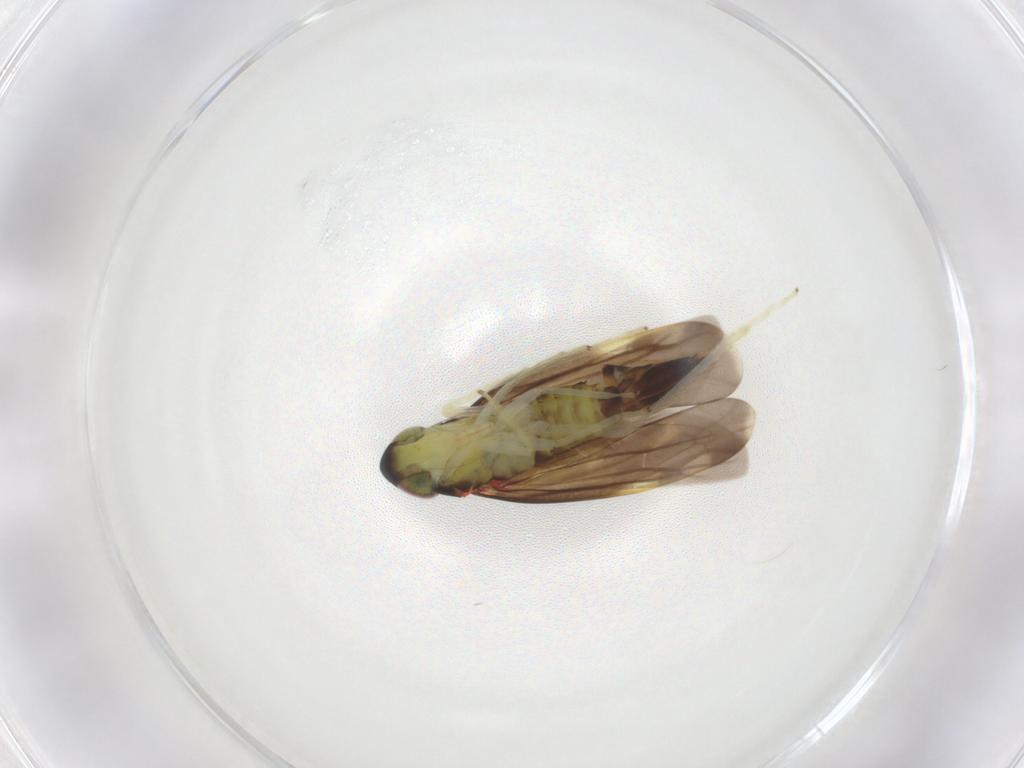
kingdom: Animalia
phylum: Arthropoda
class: Insecta
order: Hemiptera
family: Cicadellidae
